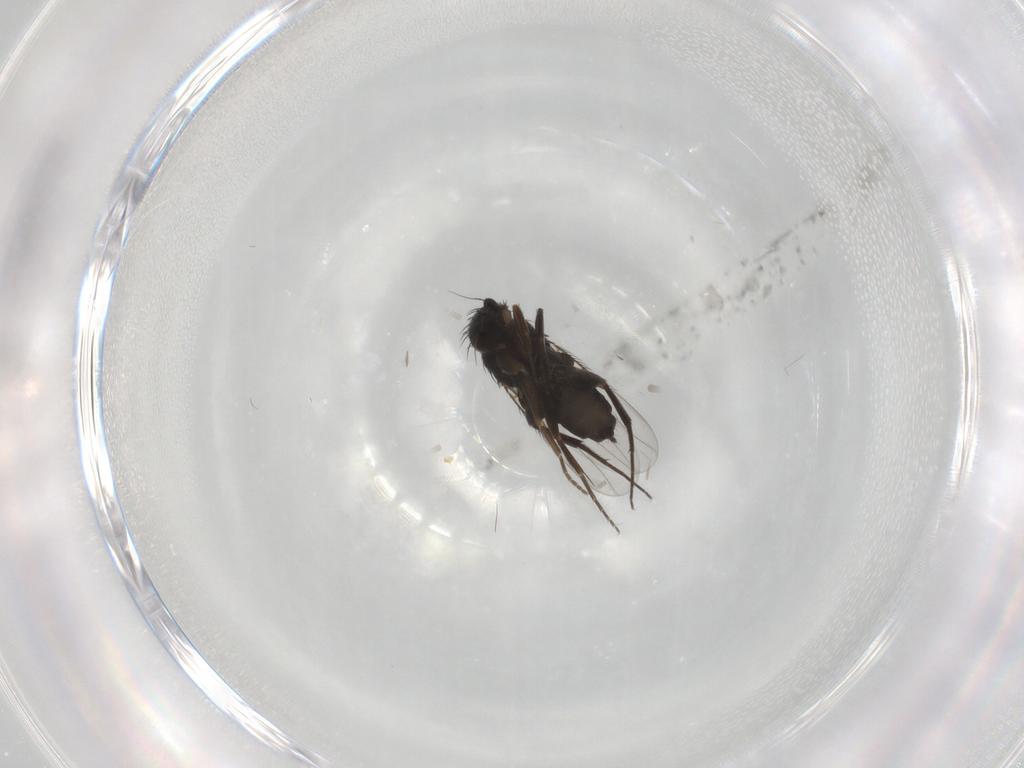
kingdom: Animalia
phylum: Arthropoda
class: Insecta
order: Diptera
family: Phoridae
